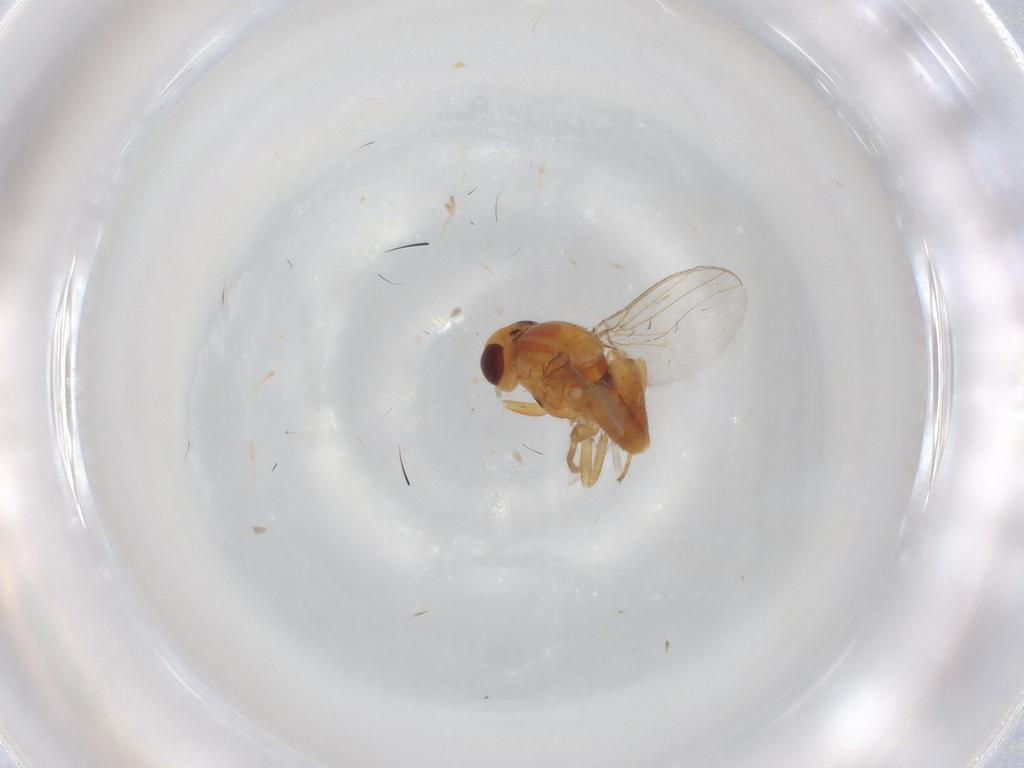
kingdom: Animalia
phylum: Arthropoda
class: Insecta
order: Diptera
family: Chloropidae
